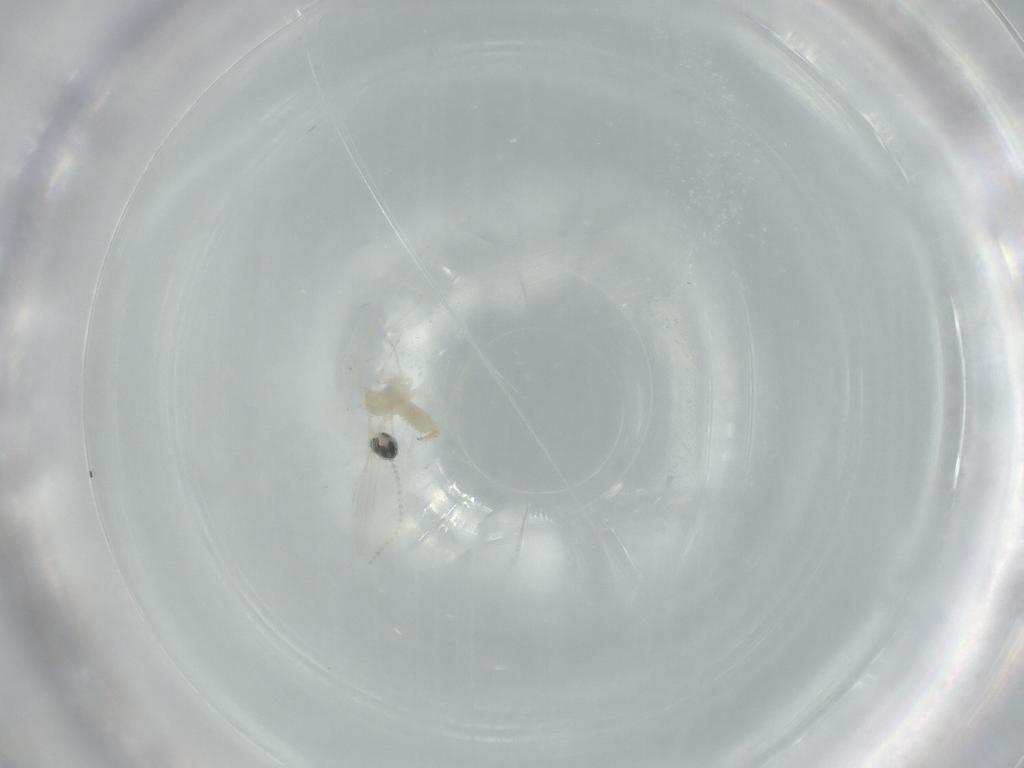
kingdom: Animalia
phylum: Arthropoda
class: Insecta
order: Diptera
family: Cecidomyiidae
